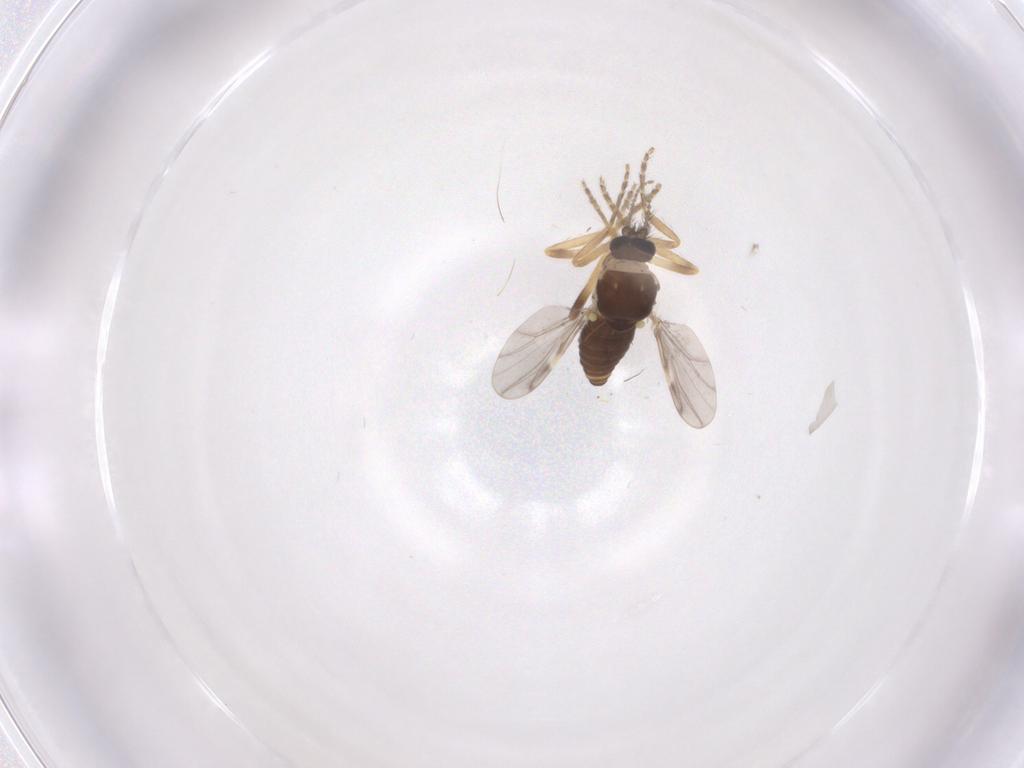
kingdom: Animalia
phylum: Arthropoda
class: Insecta
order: Diptera
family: Ceratopogonidae
